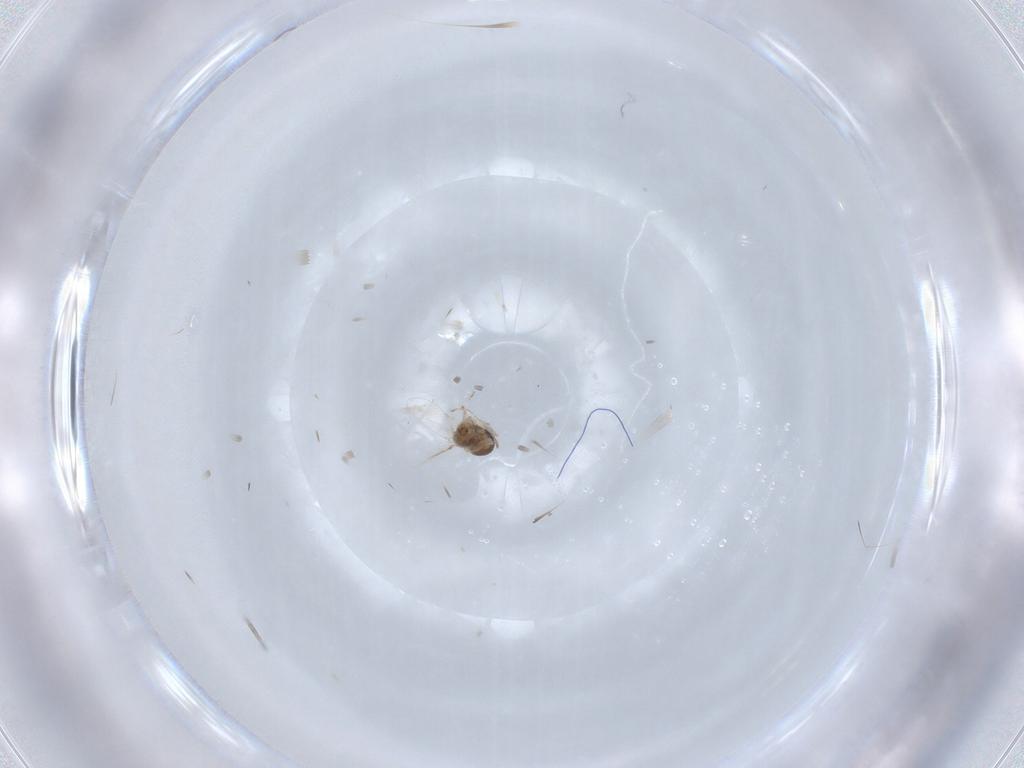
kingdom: Animalia
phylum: Arthropoda
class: Insecta
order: Diptera
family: Cecidomyiidae
